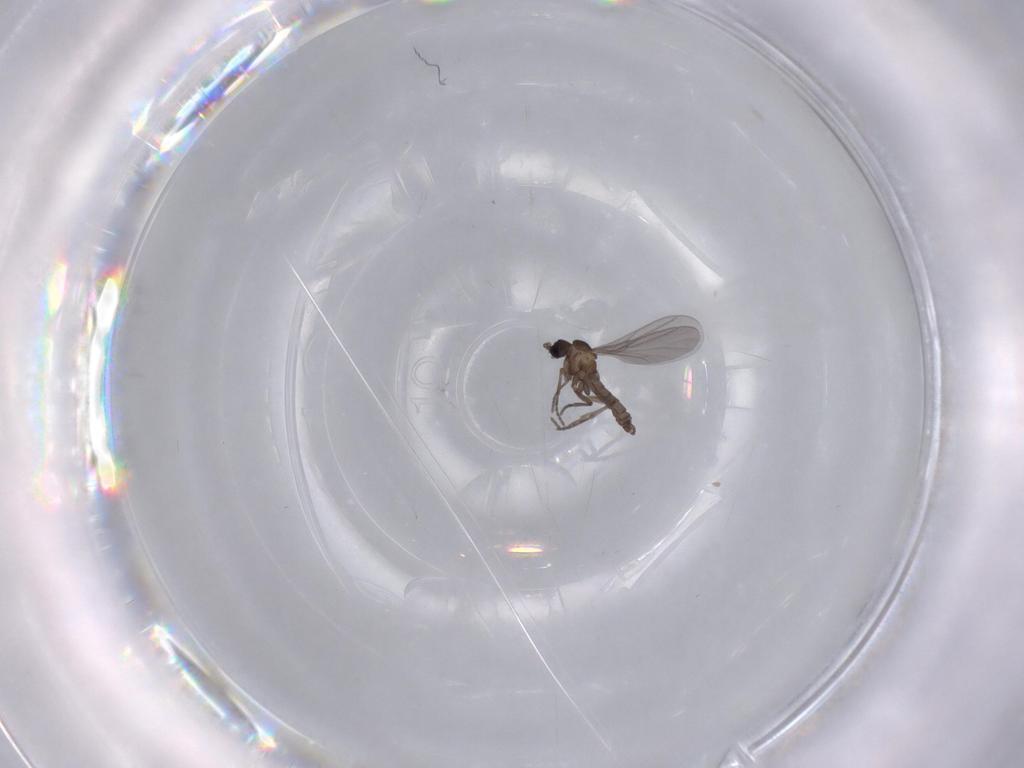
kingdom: Animalia
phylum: Arthropoda
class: Insecta
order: Diptera
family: Sciaridae
